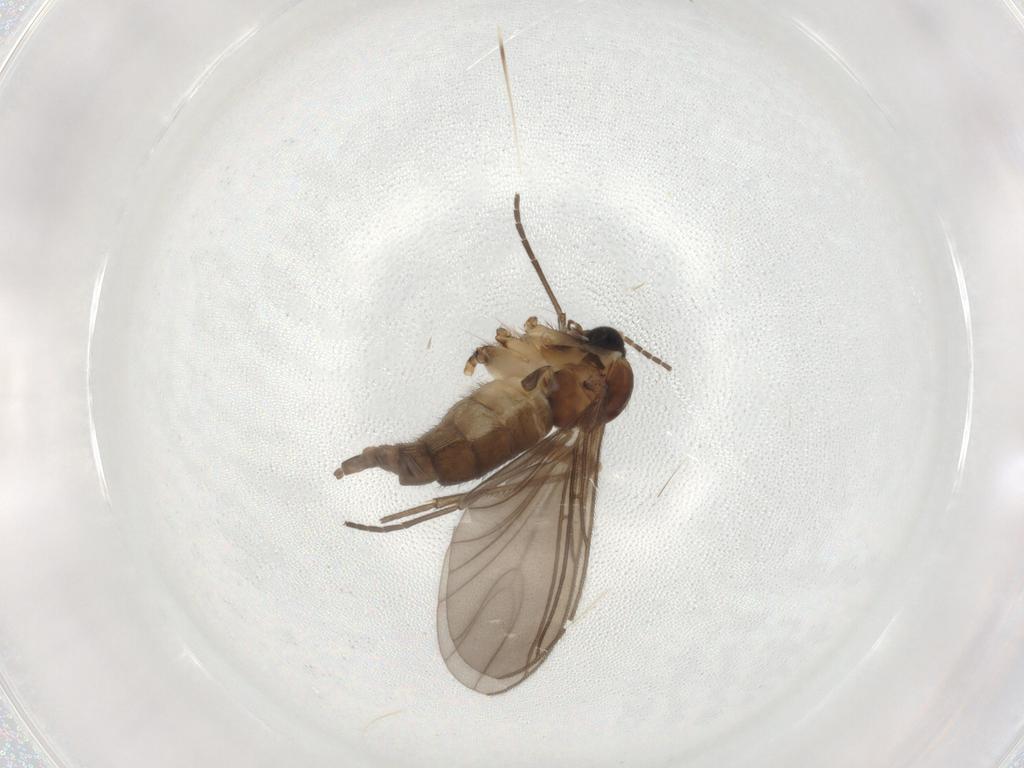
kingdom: Animalia
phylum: Arthropoda
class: Insecta
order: Diptera
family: Sciaridae
